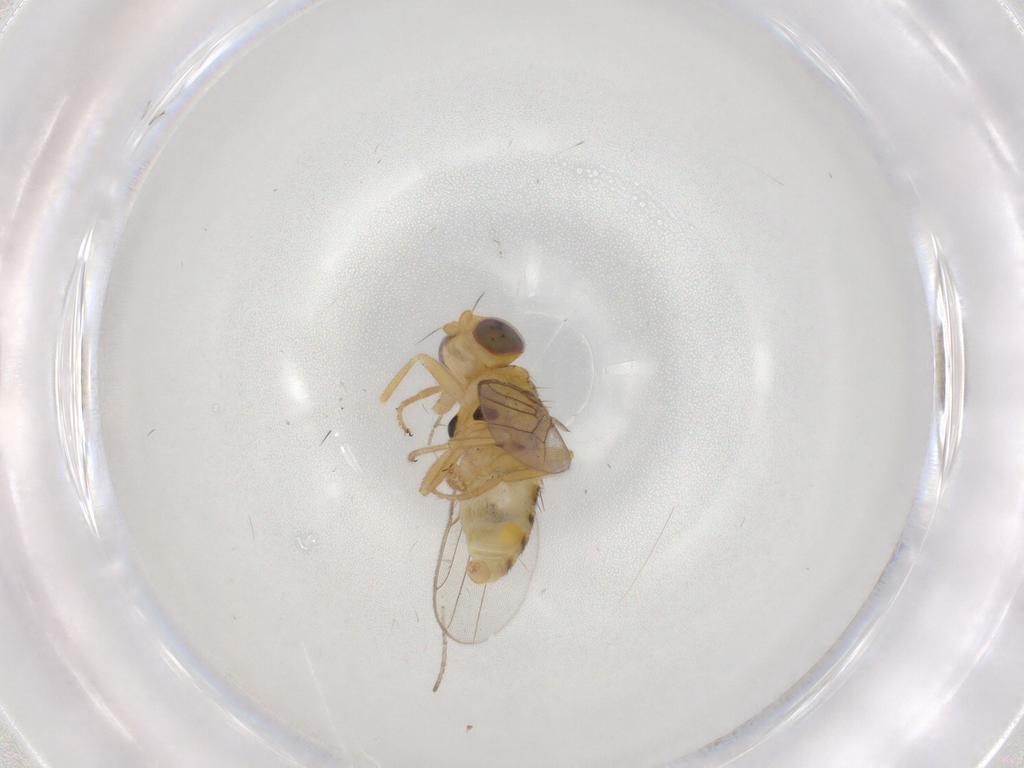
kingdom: Animalia
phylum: Arthropoda
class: Insecta
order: Diptera
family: Chloropidae
